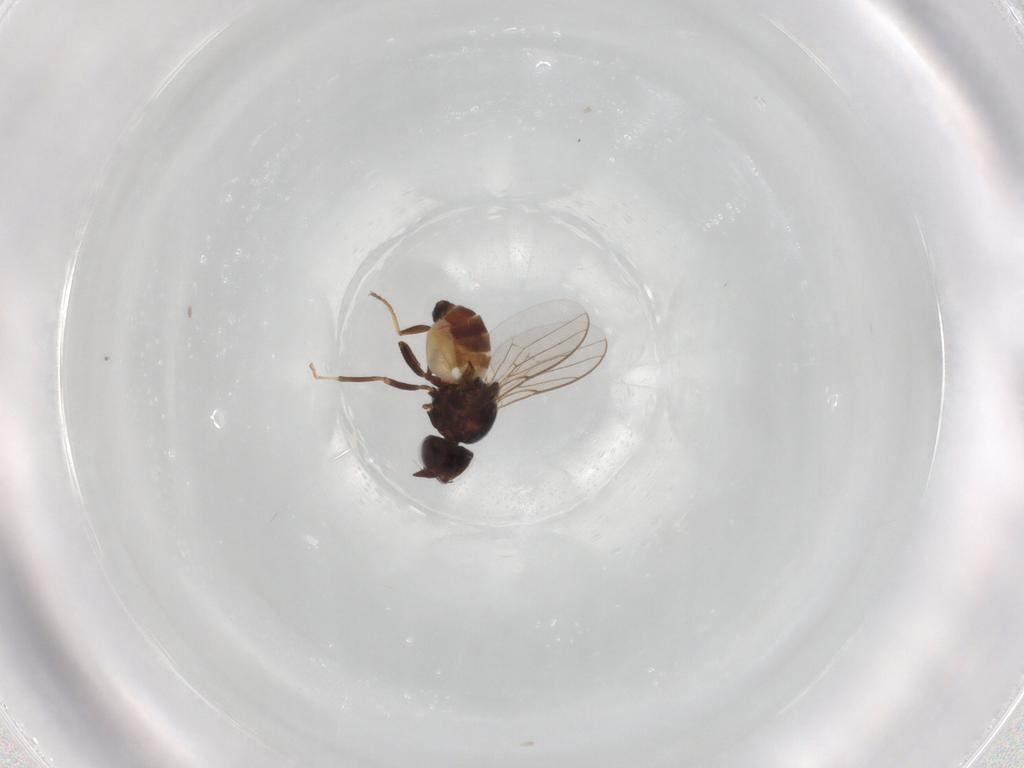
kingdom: Animalia
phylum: Arthropoda
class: Insecta
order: Diptera
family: Chloropidae
